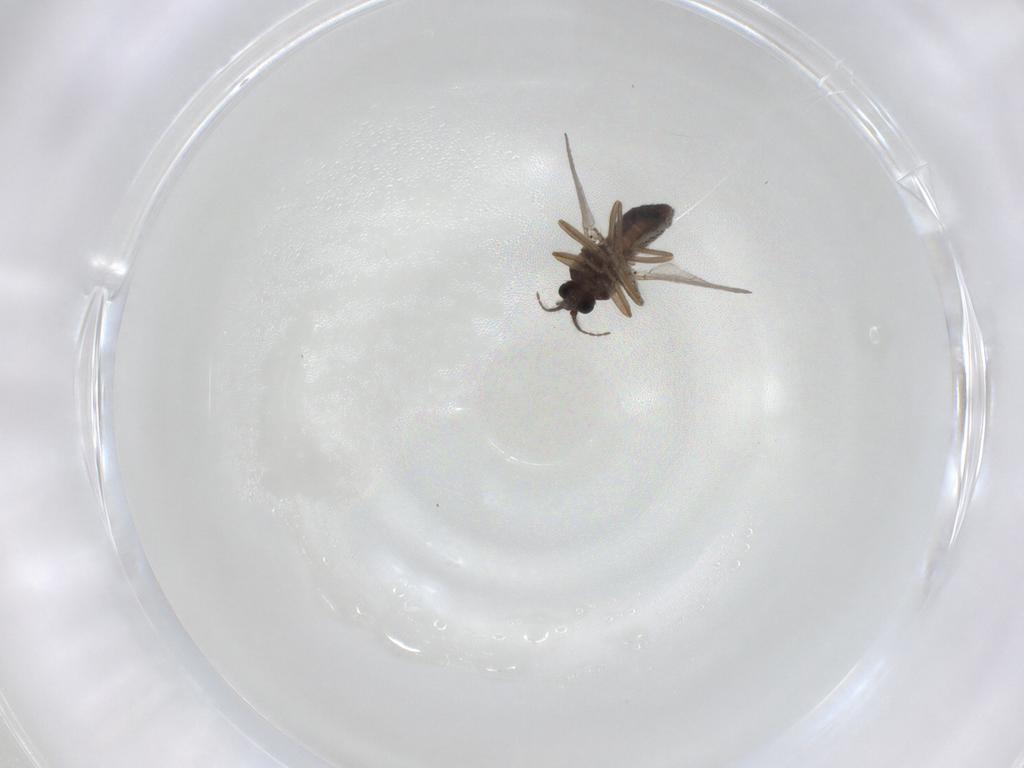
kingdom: Animalia
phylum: Arthropoda
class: Insecta
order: Diptera
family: Ceratopogonidae
